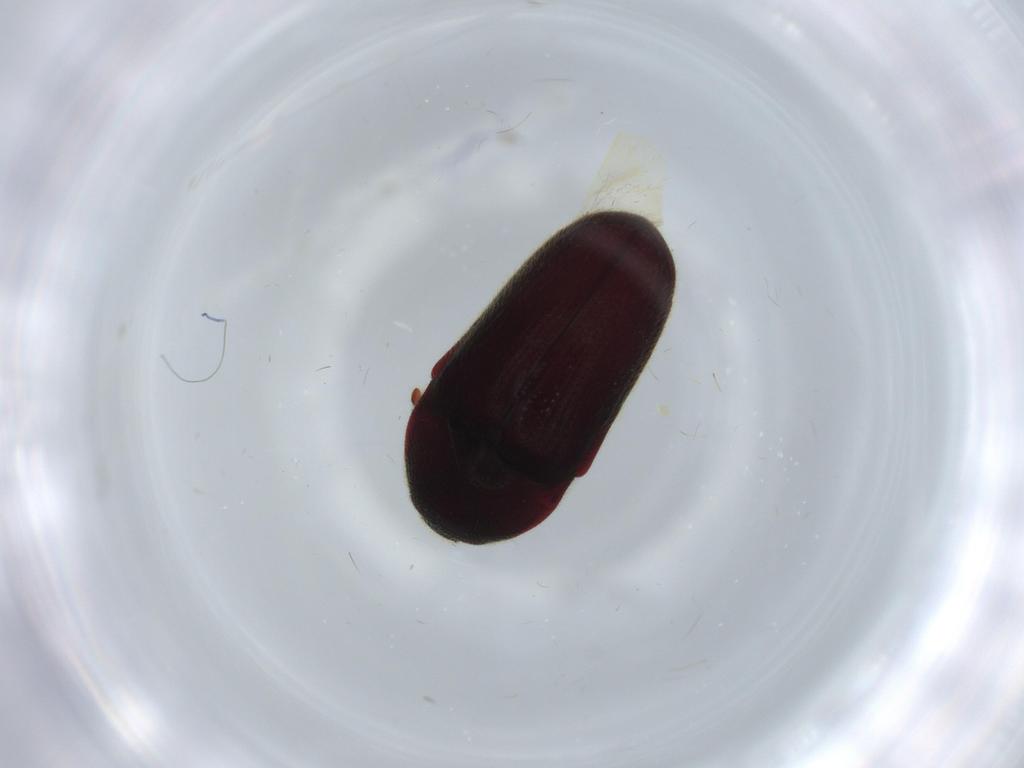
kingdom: Animalia
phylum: Arthropoda
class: Insecta
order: Coleoptera
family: Throscidae
